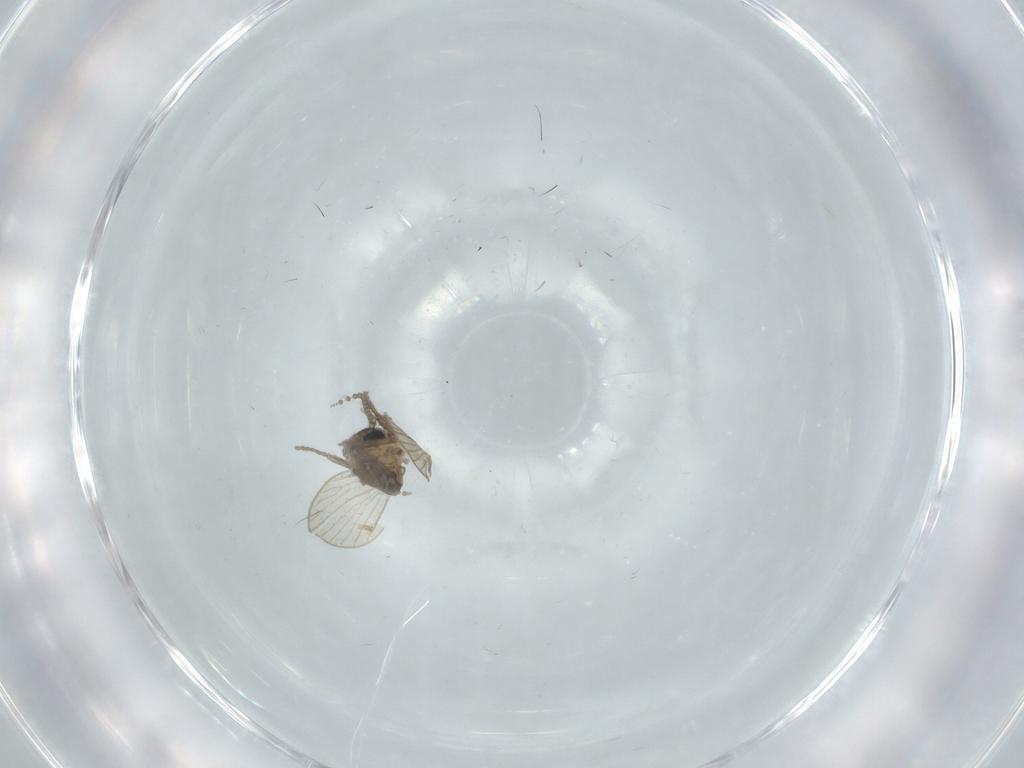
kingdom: Animalia
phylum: Arthropoda
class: Insecta
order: Diptera
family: Psychodidae
